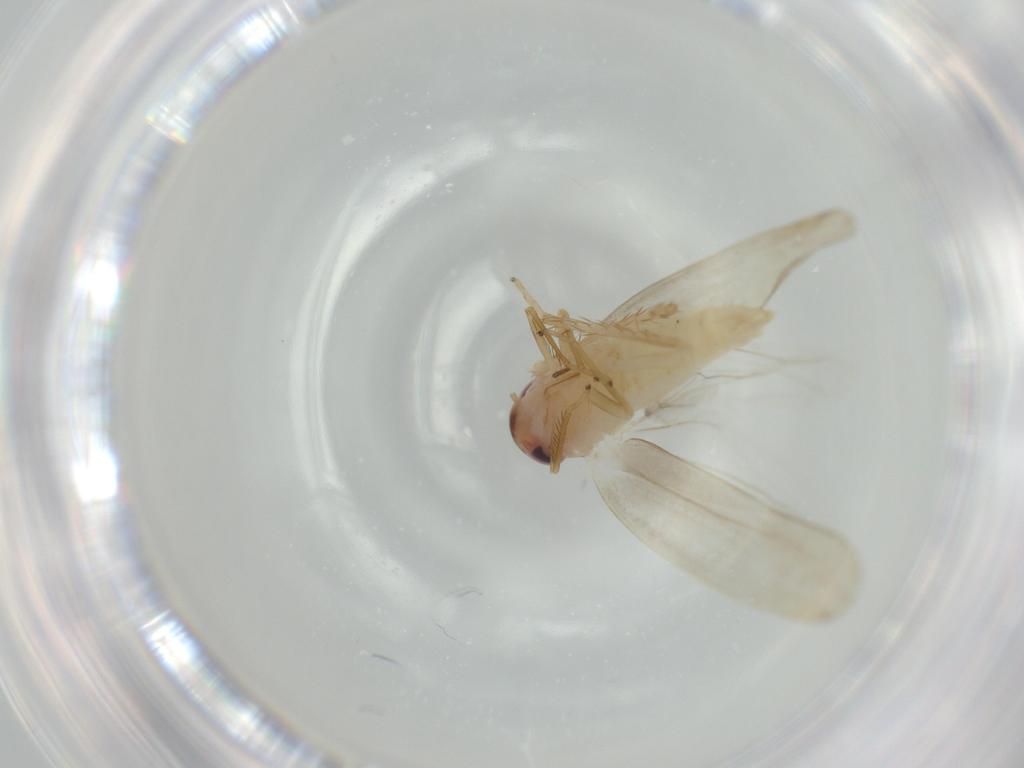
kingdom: Animalia
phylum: Arthropoda
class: Insecta
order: Hemiptera
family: Cicadellidae
